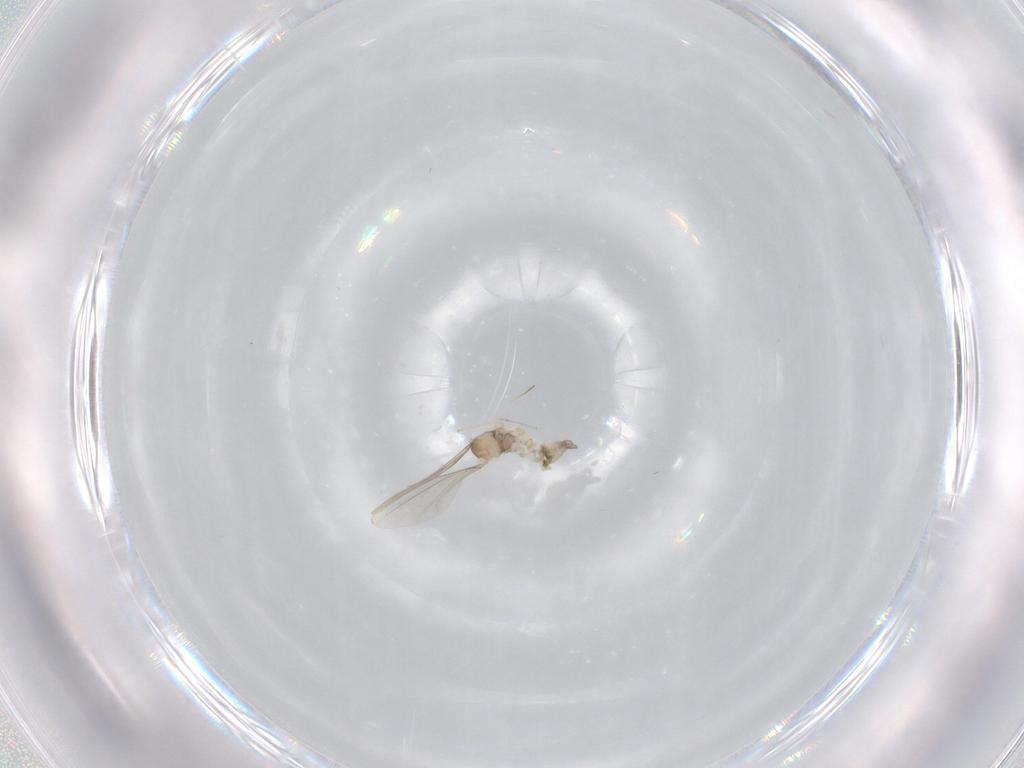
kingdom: Animalia
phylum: Arthropoda
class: Insecta
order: Diptera
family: Cecidomyiidae
